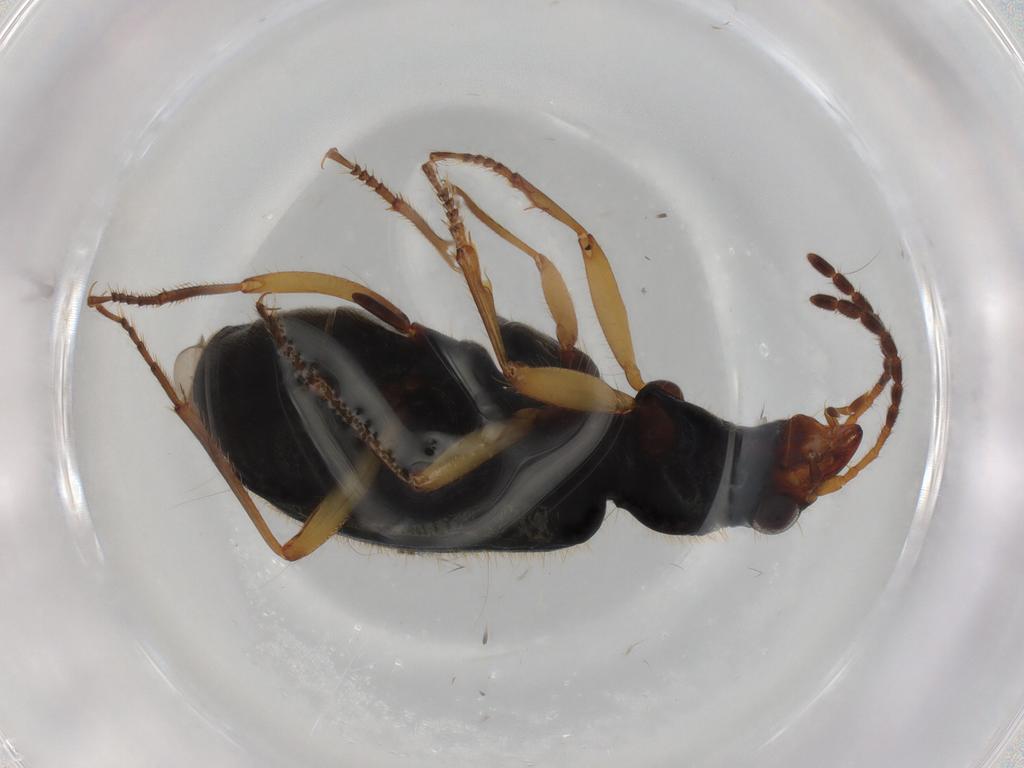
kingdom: Animalia
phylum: Arthropoda
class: Insecta
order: Coleoptera
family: Carabidae
